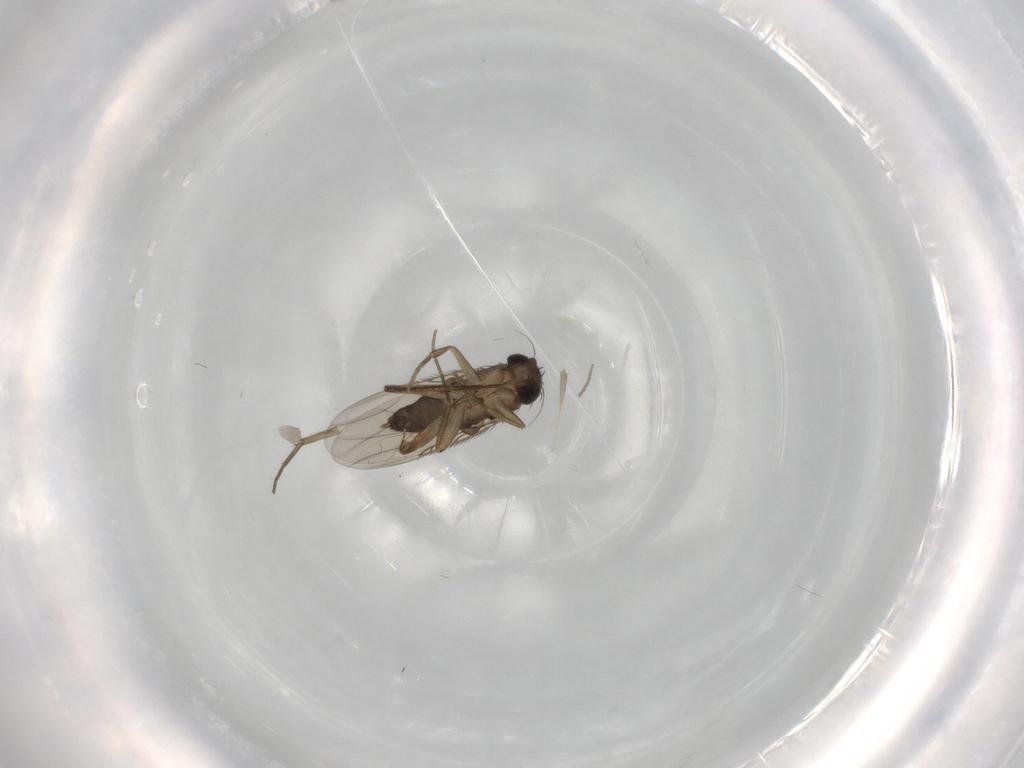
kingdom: Animalia
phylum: Arthropoda
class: Insecta
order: Diptera
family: Phoridae
